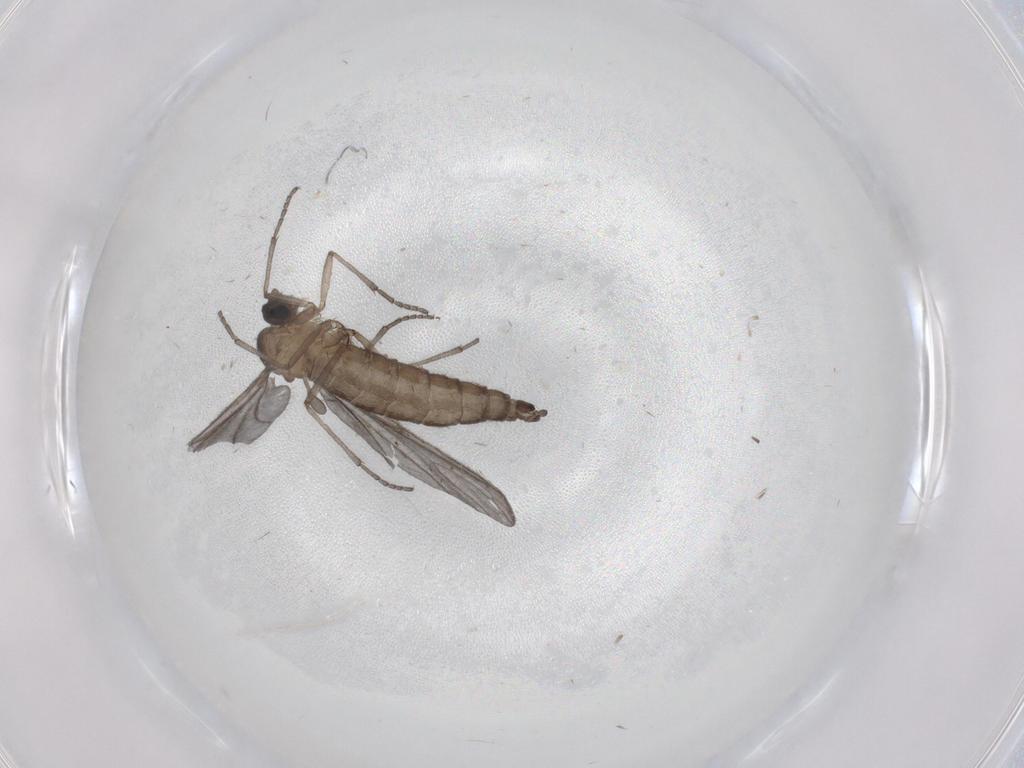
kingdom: Animalia
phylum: Arthropoda
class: Insecta
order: Diptera
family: Sciaridae
